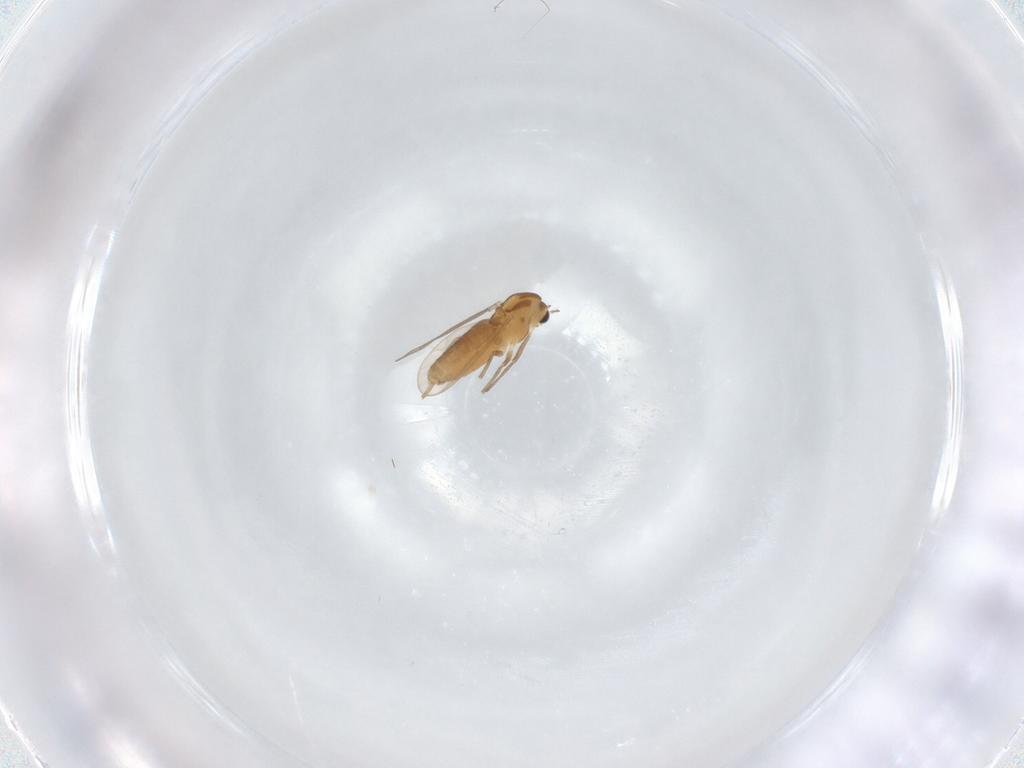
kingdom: Animalia
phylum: Arthropoda
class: Insecta
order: Diptera
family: Chironomidae
